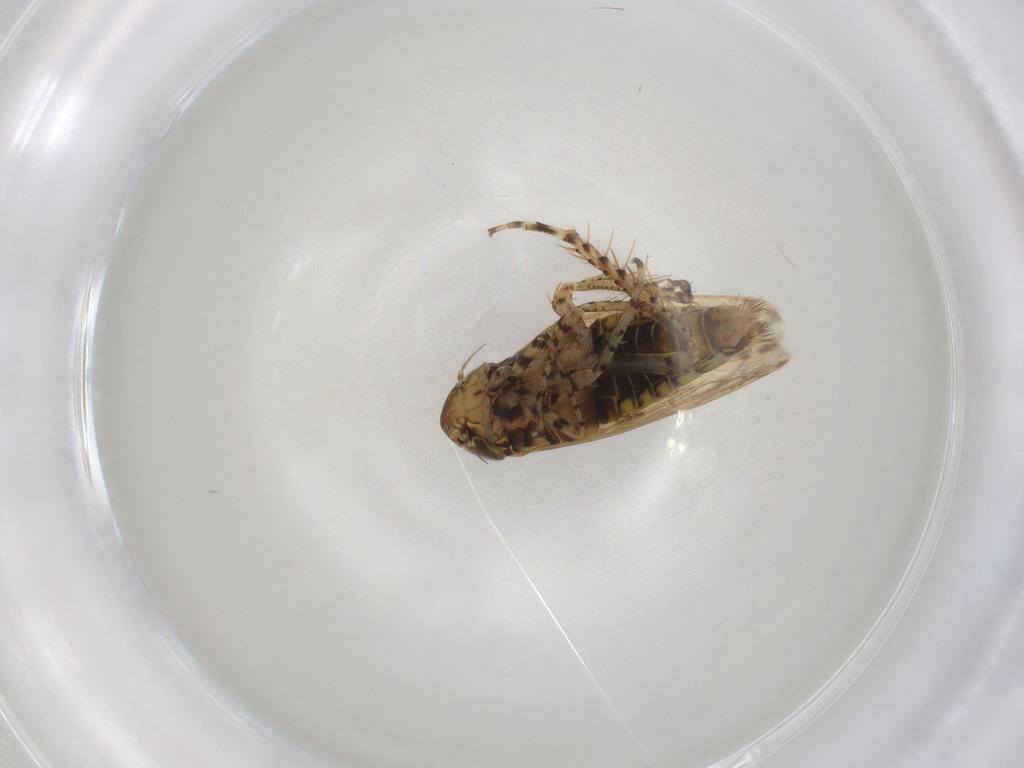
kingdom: Animalia
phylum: Arthropoda
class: Insecta
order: Hemiptera
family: Cicadellidae
